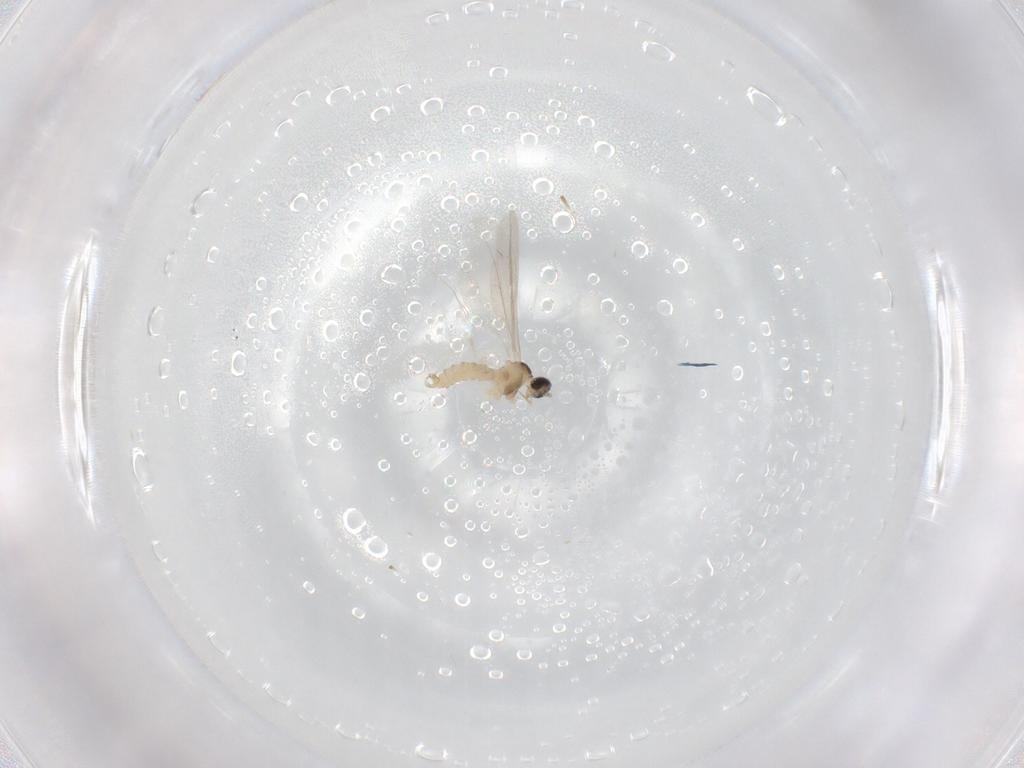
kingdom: Animalia
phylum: Arthropoda
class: Insecta
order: Diptera
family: Cecidomyiidae
